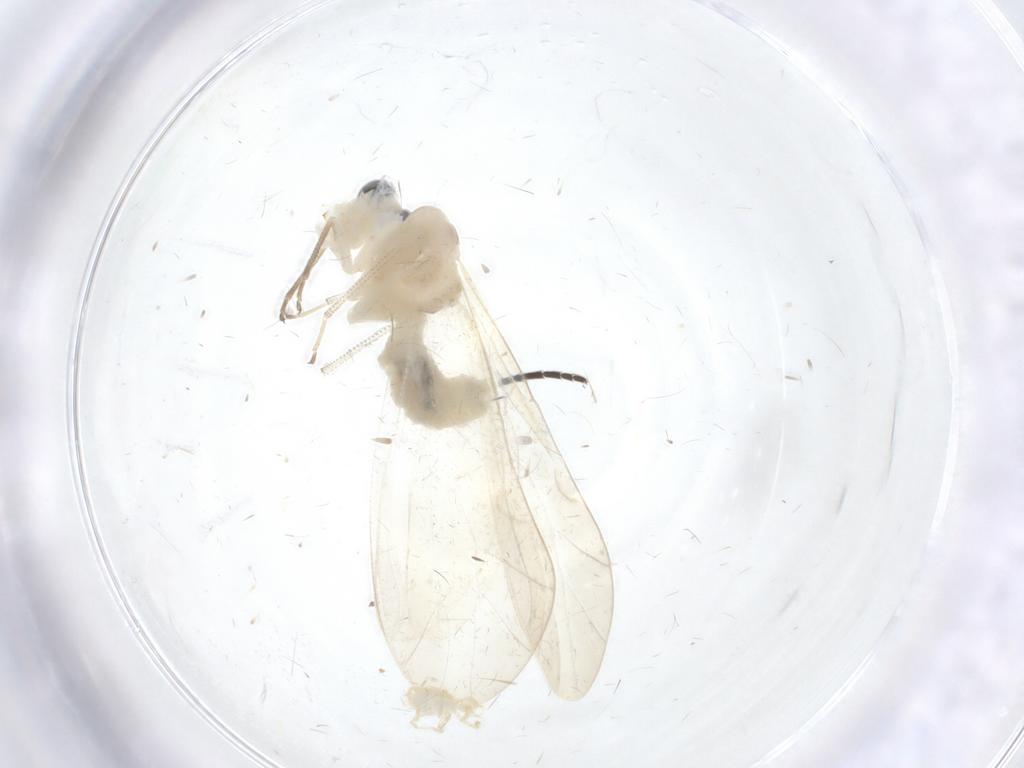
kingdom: Animalia
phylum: Arthropoda
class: Insecta
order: Psocodea
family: Caeciliusidae
